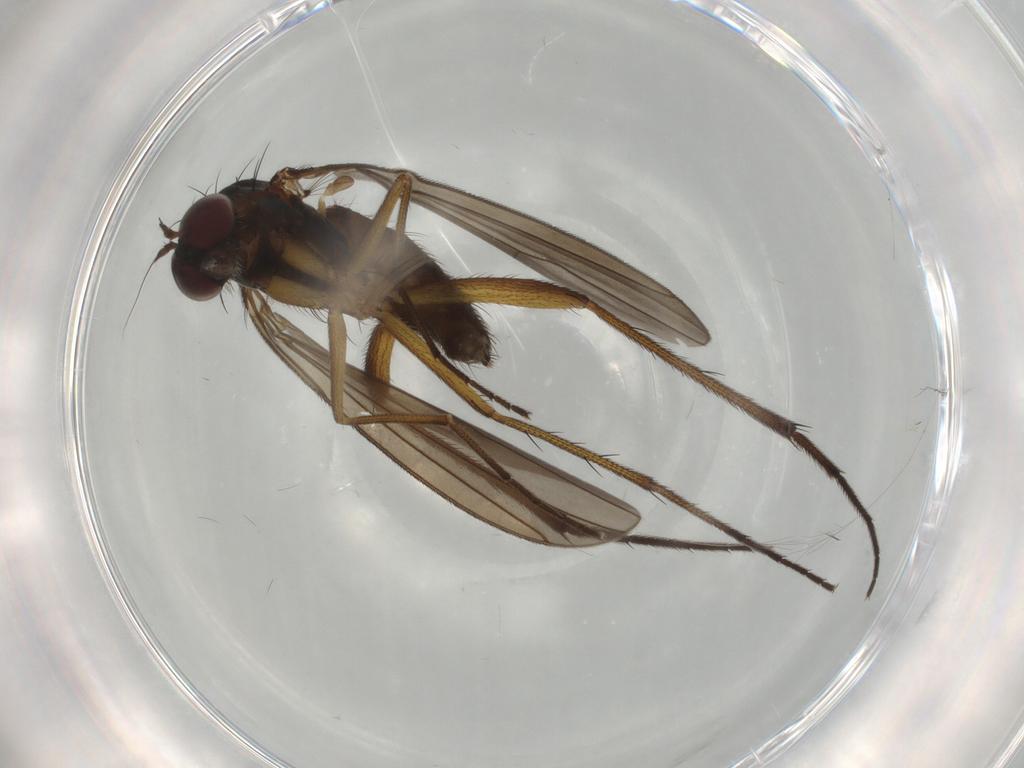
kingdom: Animalia
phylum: Arthropoda
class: Insecta
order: Diptera
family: Dolichopodidae
